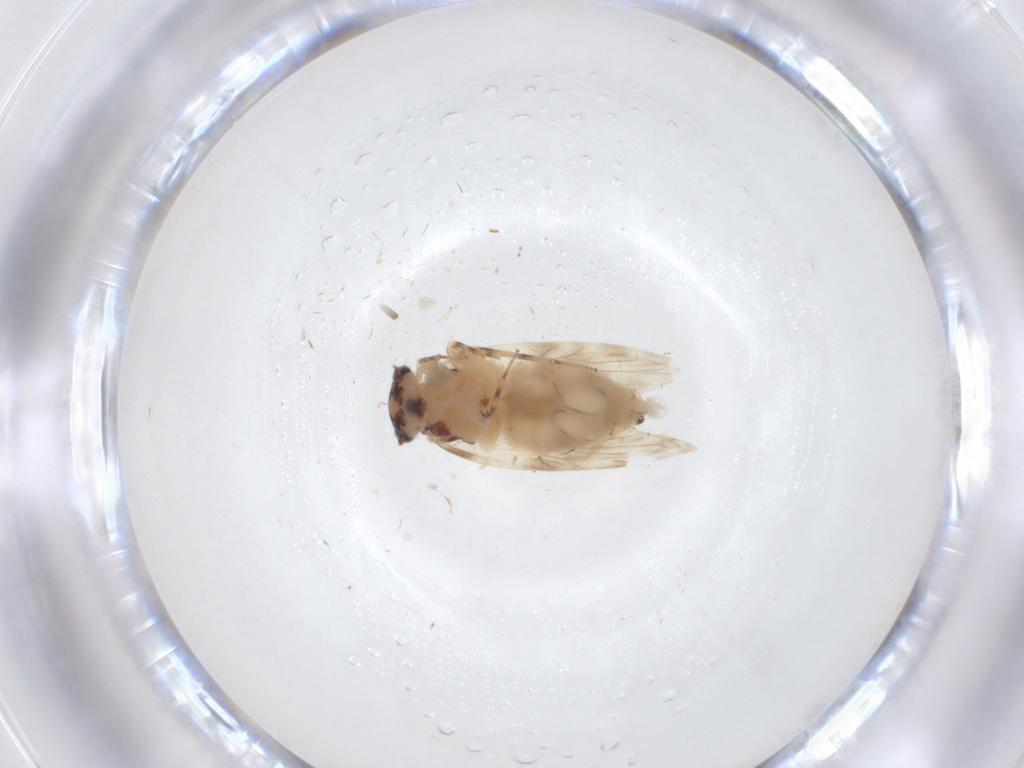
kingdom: Animalia
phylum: Arthropoda
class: Insecta
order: Psocodea
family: Lepidopsocidae
